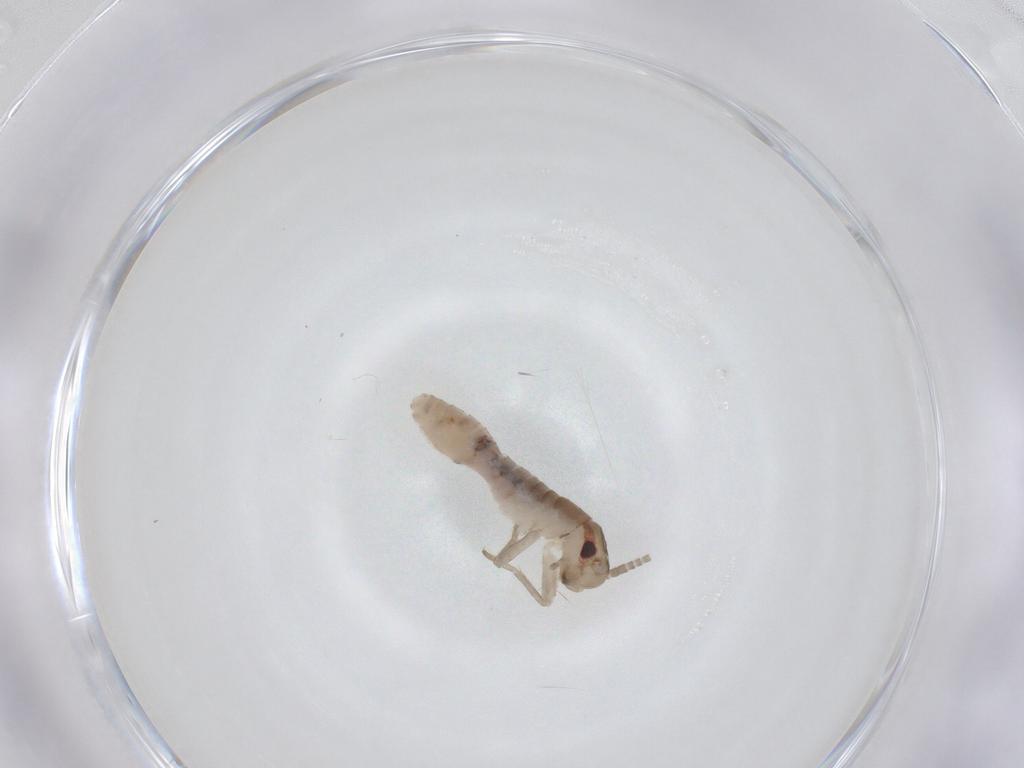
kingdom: Animalia
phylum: Arthropoda
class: Insecta
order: Orthoptera
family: Gryllidae
